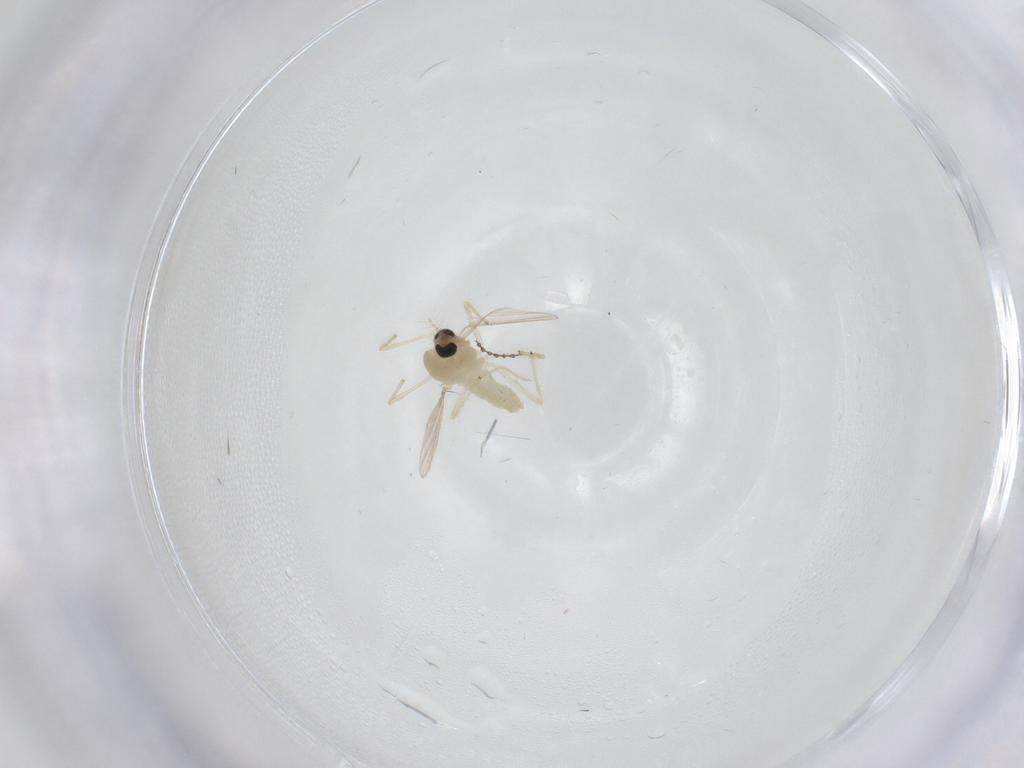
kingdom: Animalia
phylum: Arthropoda
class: Insecta
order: Diptera
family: Chironomidae
